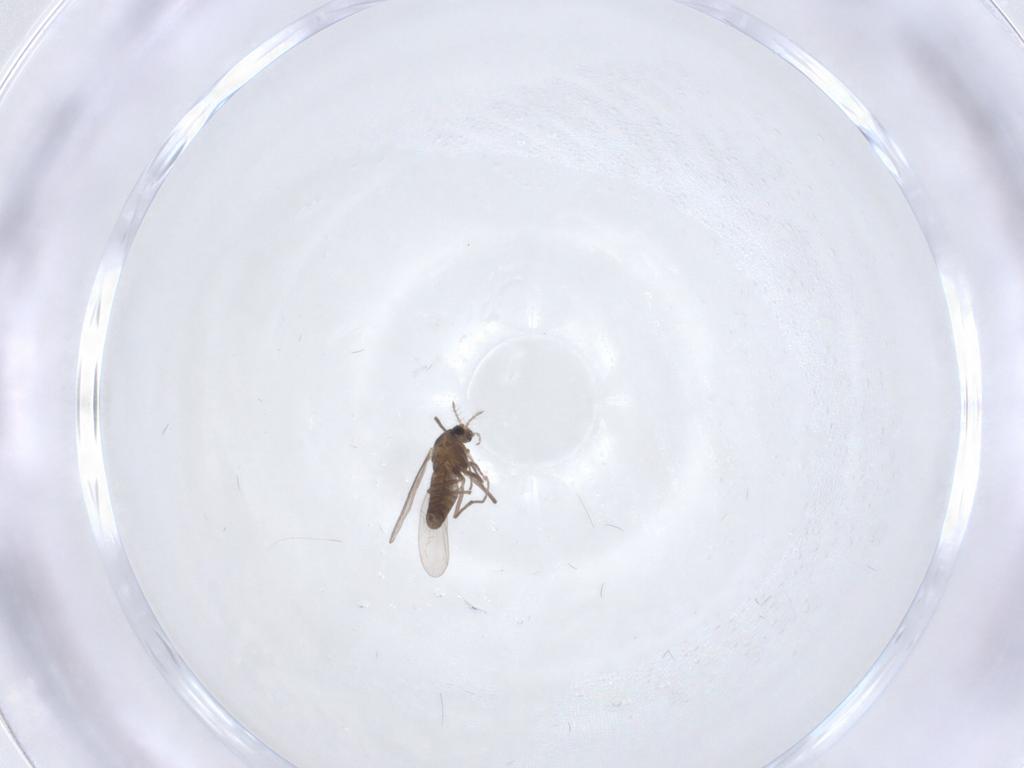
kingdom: Animalia
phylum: Arthropoda
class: Insecta
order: Diptera
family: Chironomidae
